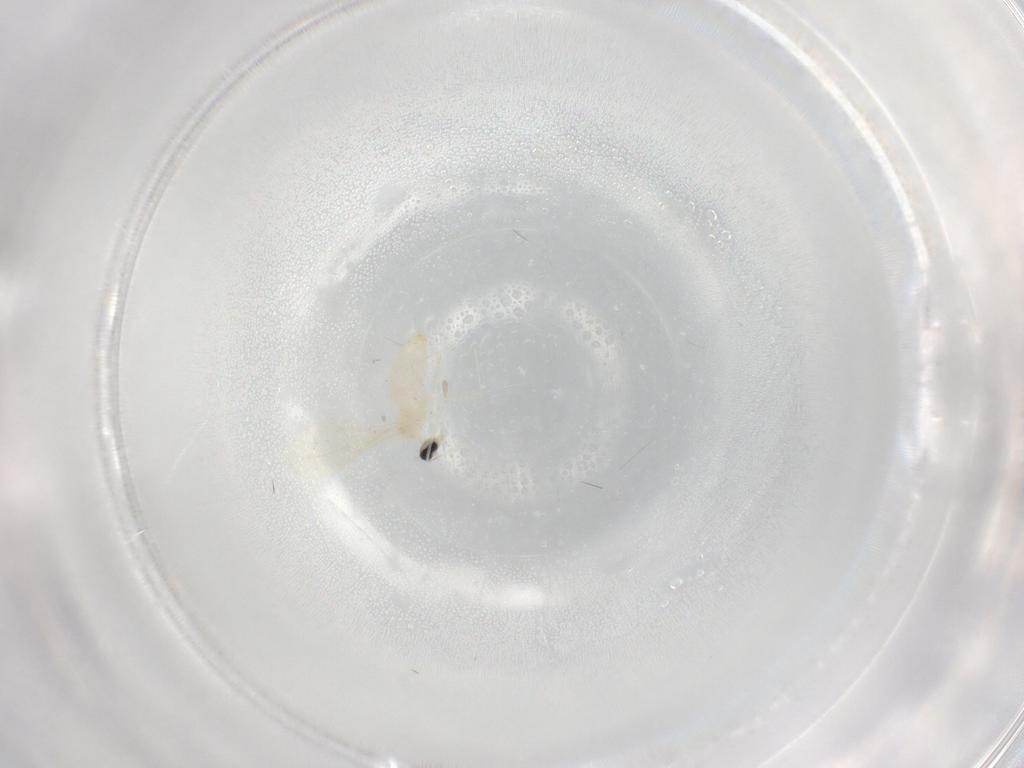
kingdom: Animalia
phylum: Arthropoda
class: Insecta
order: Diptera
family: Cecidomyiidae
